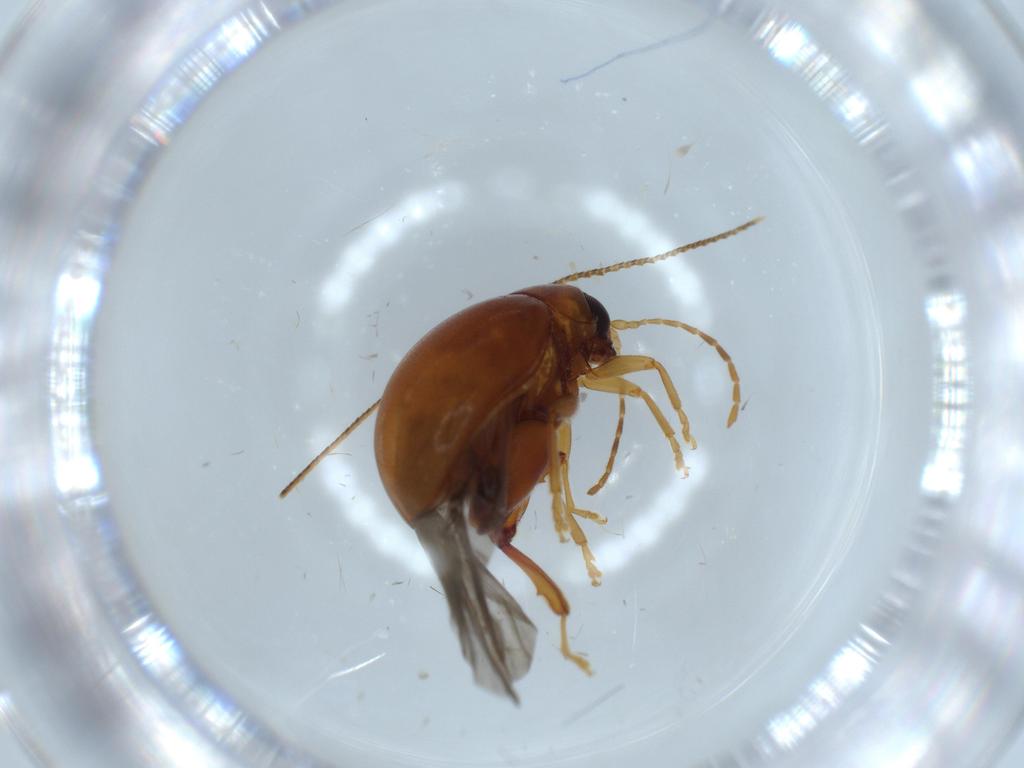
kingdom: Animalia
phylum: Arthropoda
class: Insecta
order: Coleoptera
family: Chrysomelidae
